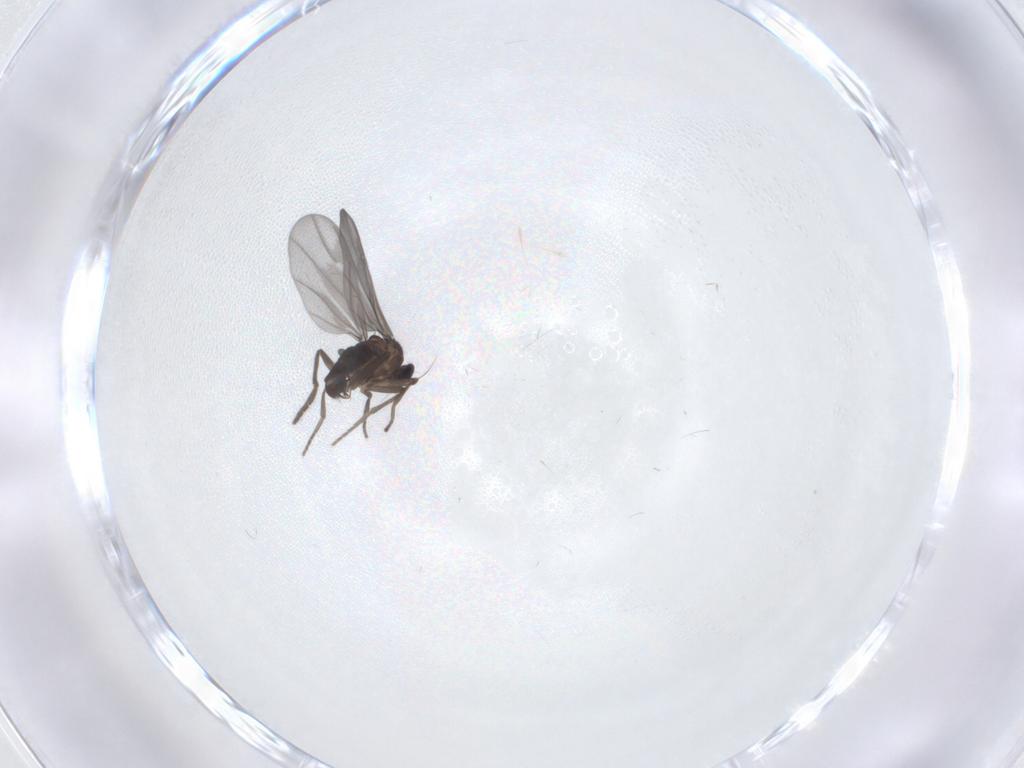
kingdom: Animalia
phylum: Arthropoda
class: Insecta
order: Diptera
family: Phoridae
